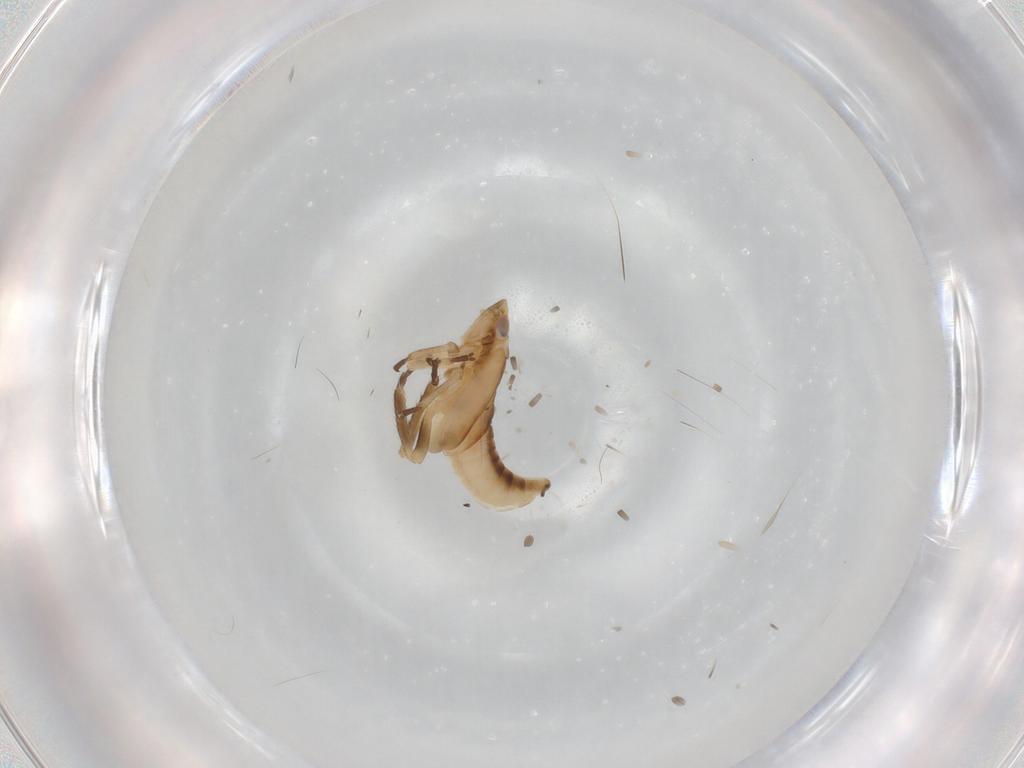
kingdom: Animalia
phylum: Arthropoda
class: Insecta
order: Hemiptera
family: Cicadellidae
